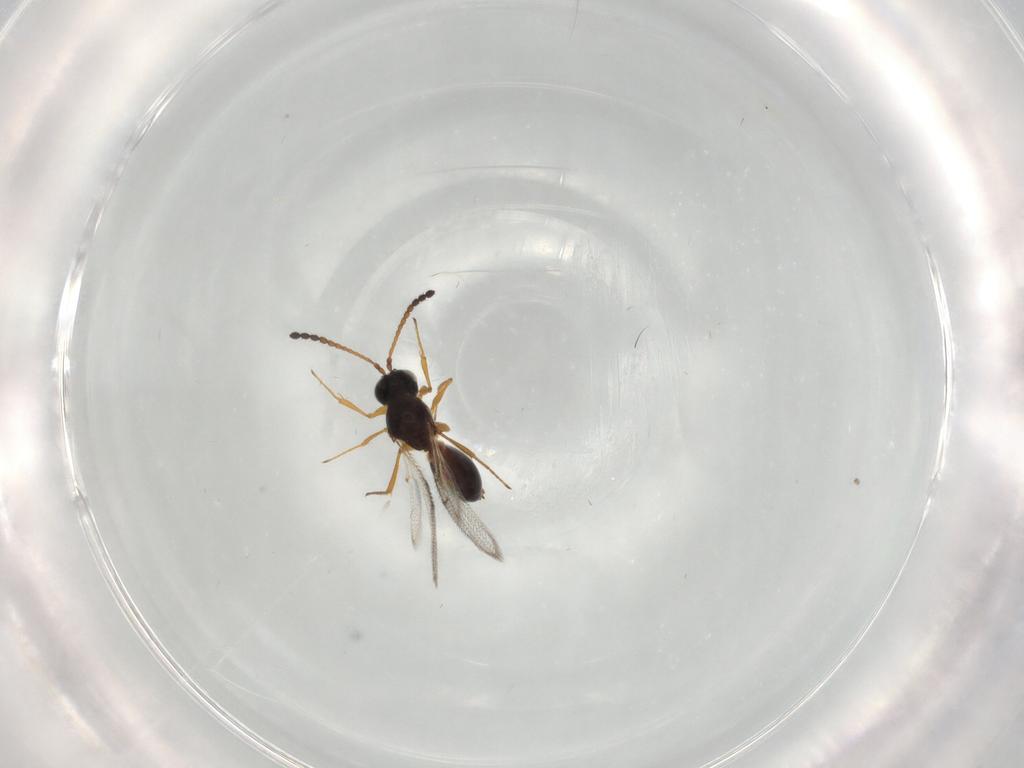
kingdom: Animalia
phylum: Arthropoda
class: Insecta
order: Hymenoptera
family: Figitidae
